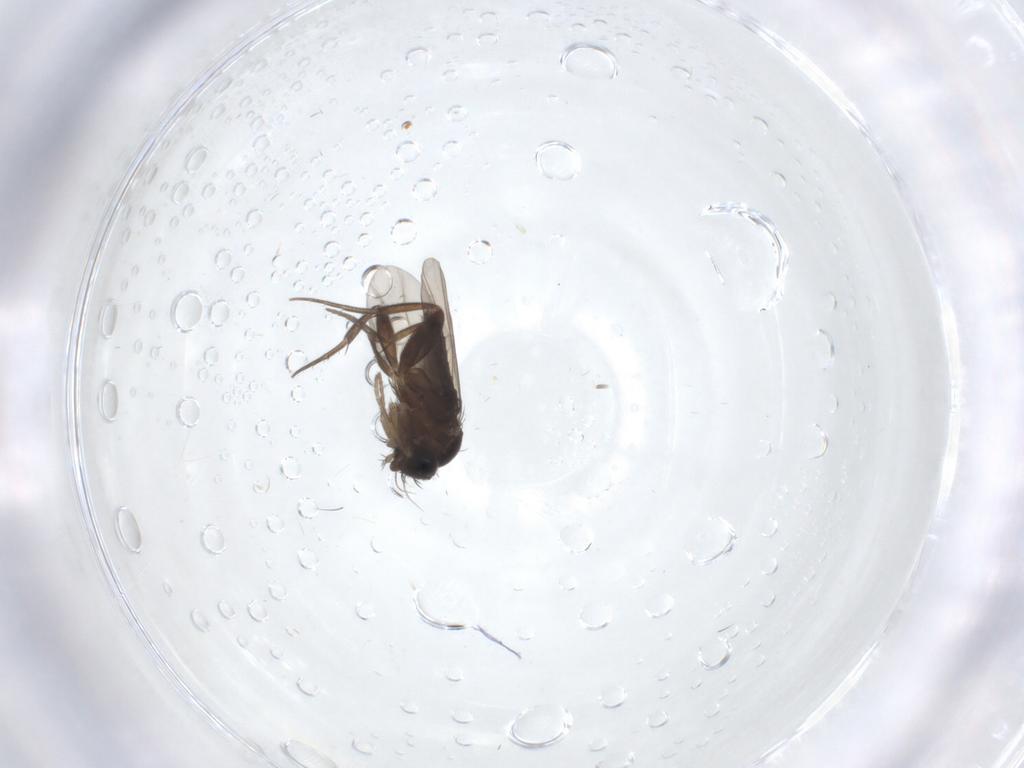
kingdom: Animalia
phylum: Arthropoda
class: Insecta
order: Diptera
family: Phoridae
